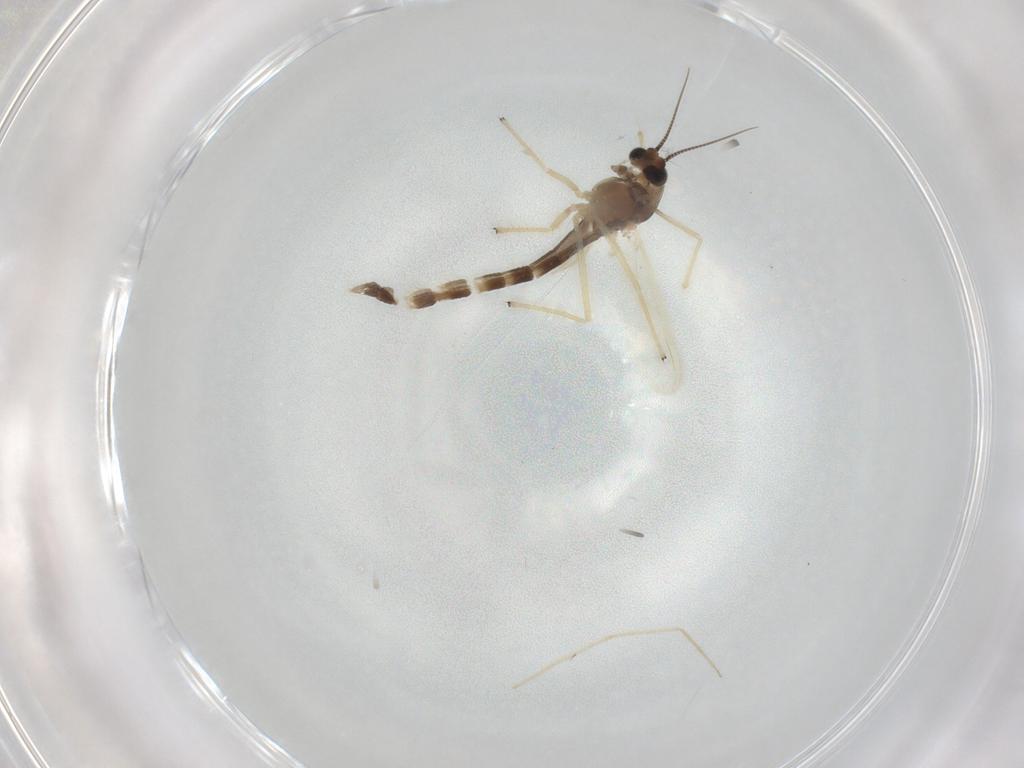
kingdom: Animalia
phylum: Arthropoda
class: Insecta
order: Diptera
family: Chironomidae
